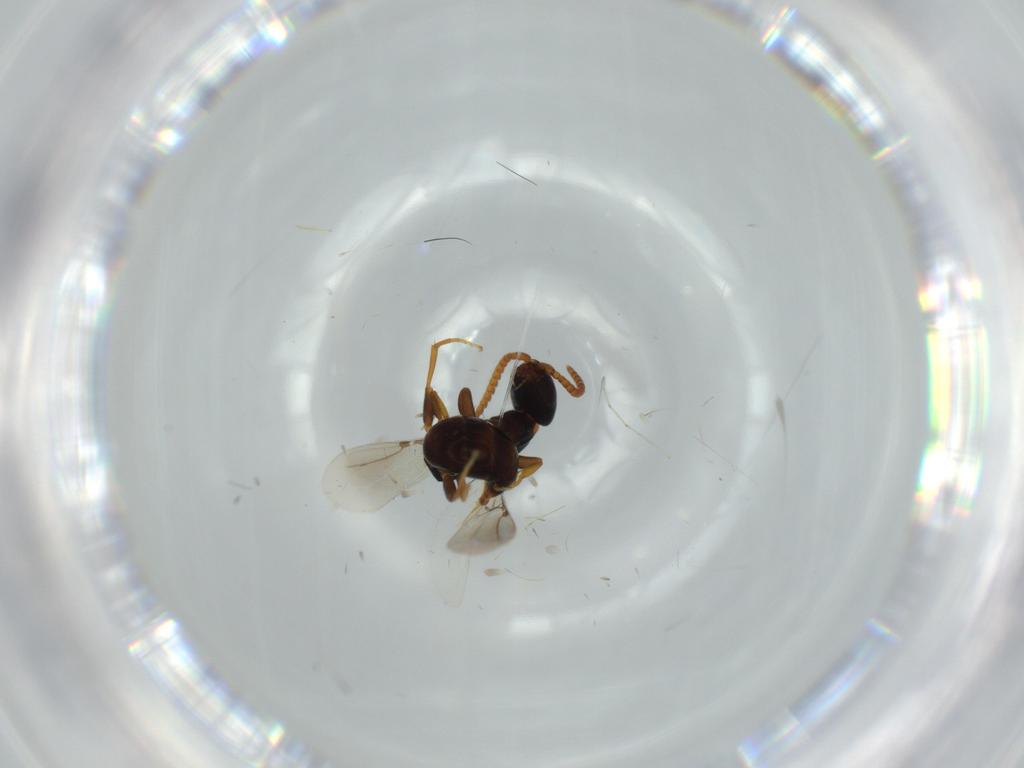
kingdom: Animalia
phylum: Arthropoda
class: Insecta
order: Hymenoptera
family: Bethylidae
